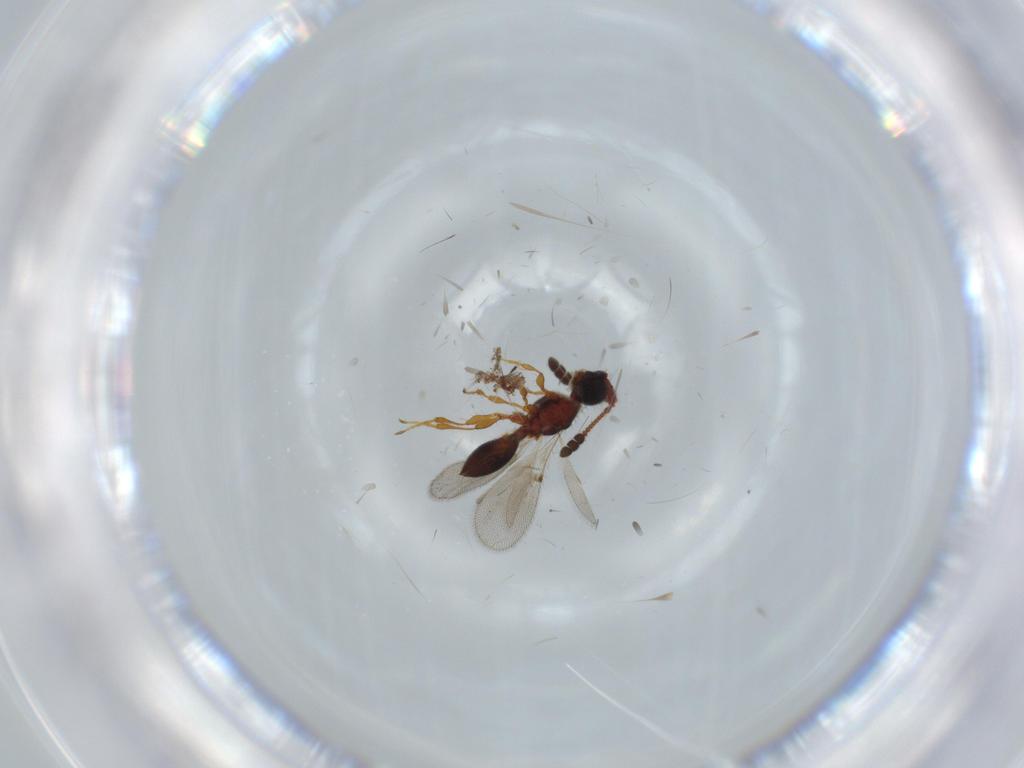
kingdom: Animalia
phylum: Arthropoda
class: Insecta
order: Hymenoptera
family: Diapriidae
